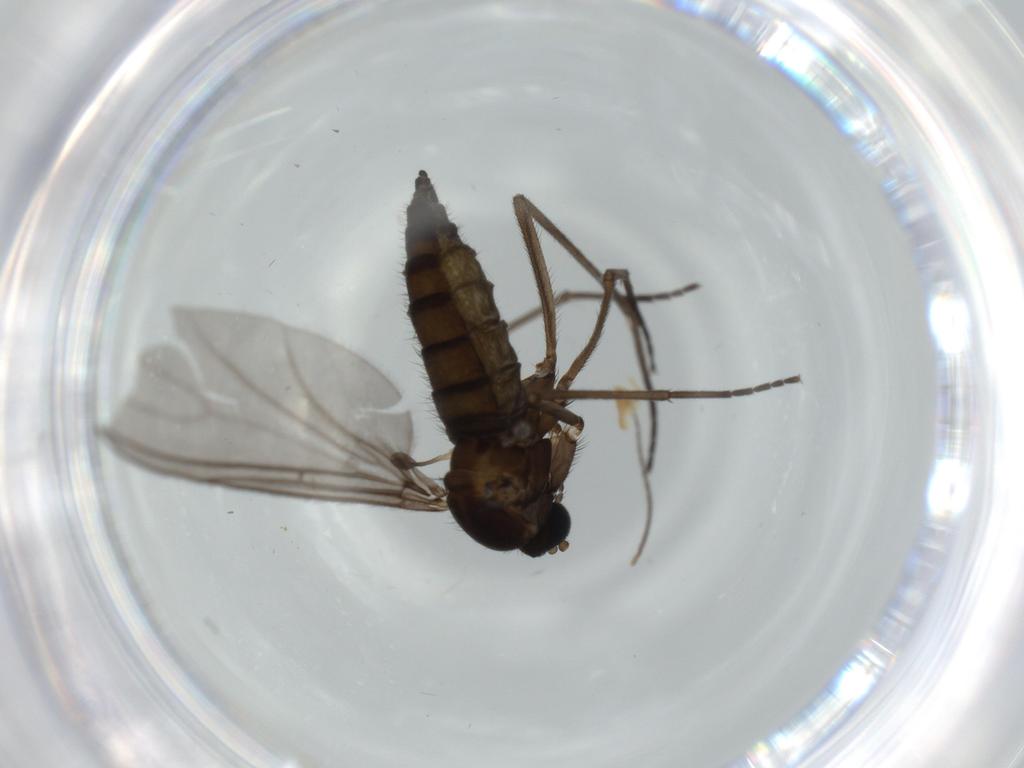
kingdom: Animalia
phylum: Arthropoda
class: Insecta
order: Diptera
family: Sciaridae
